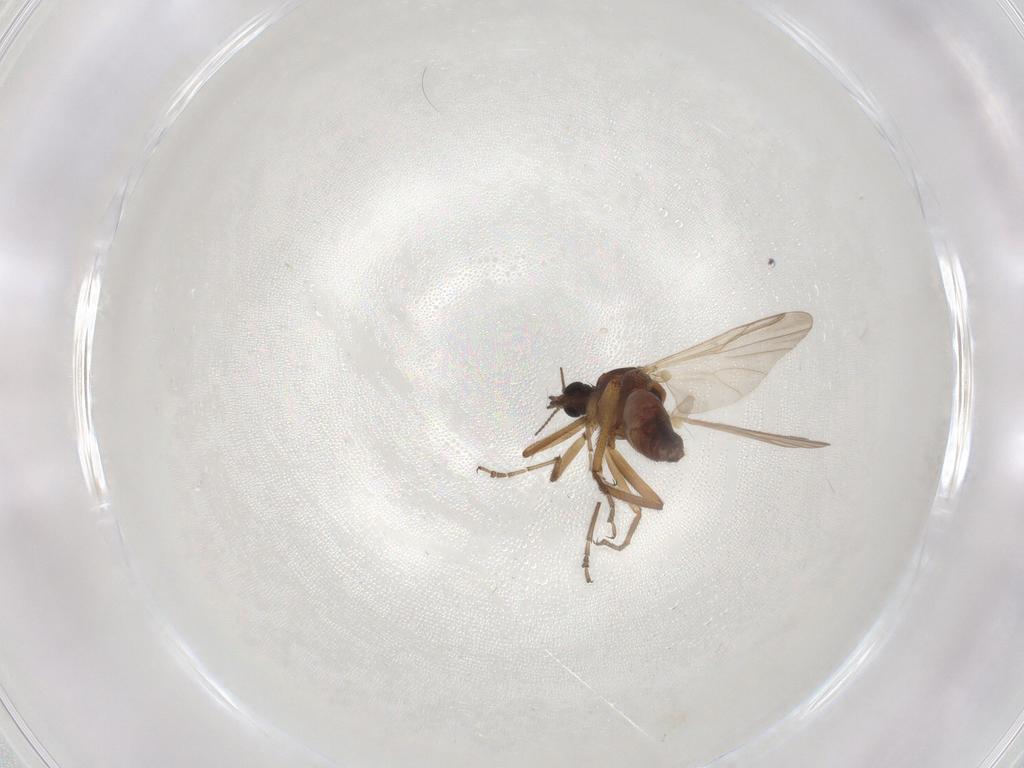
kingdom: Animalia
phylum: Arthropoda
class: Insecta
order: Diptera
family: Ceratopogonidae
